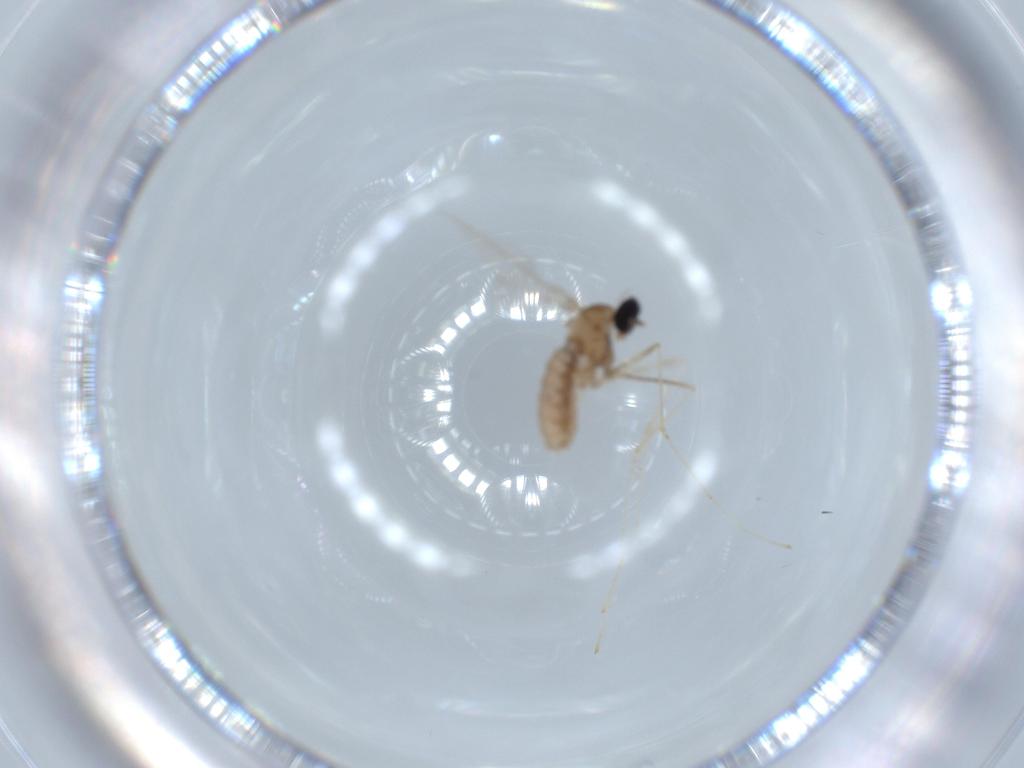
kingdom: Animalia
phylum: Arthropoda
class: Insecta
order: Diptera
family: Cecidomyiidae
